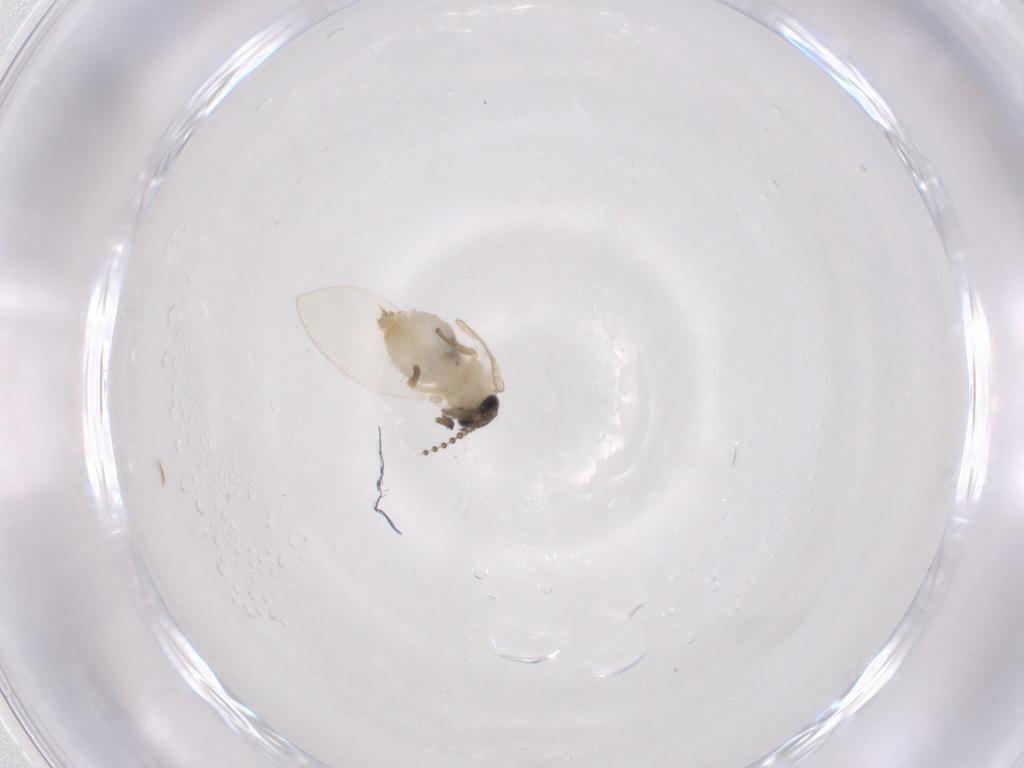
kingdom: Animalia
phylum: Arthropoda
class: Insecta
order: Diptera
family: Psychodidae
